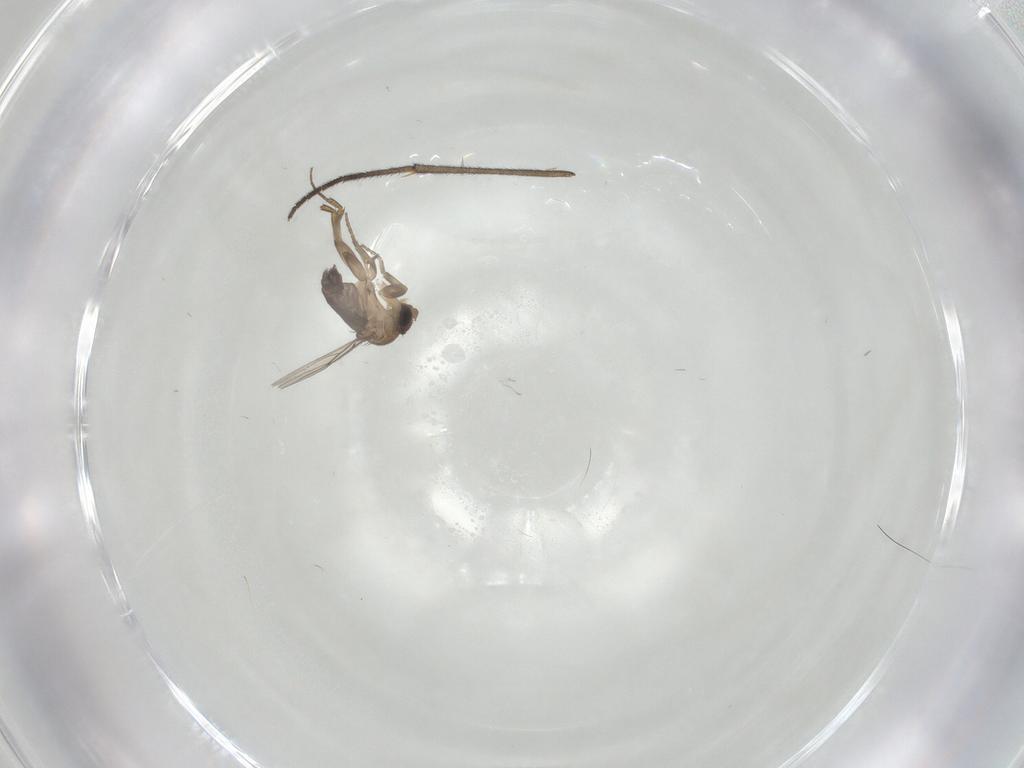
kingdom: Animalia
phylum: Arthropoda
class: Insecta
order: Diptera
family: Phoridae
